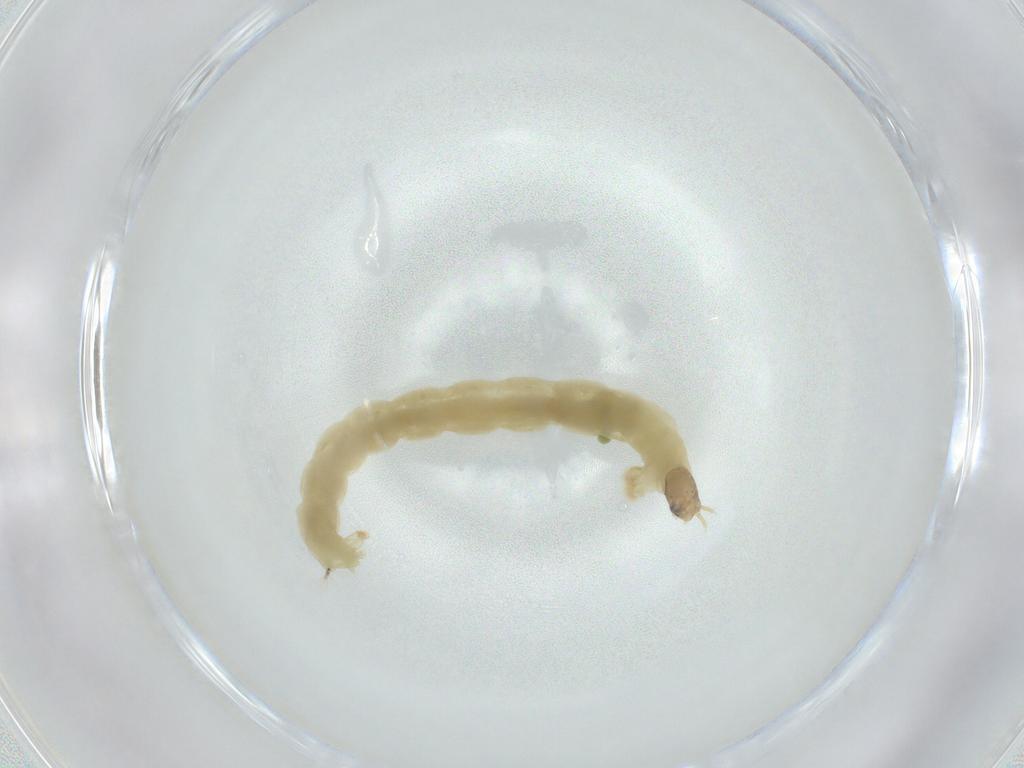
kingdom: Animalia
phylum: Arthropoda
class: Insecta
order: Diptera
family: Chironomidae
